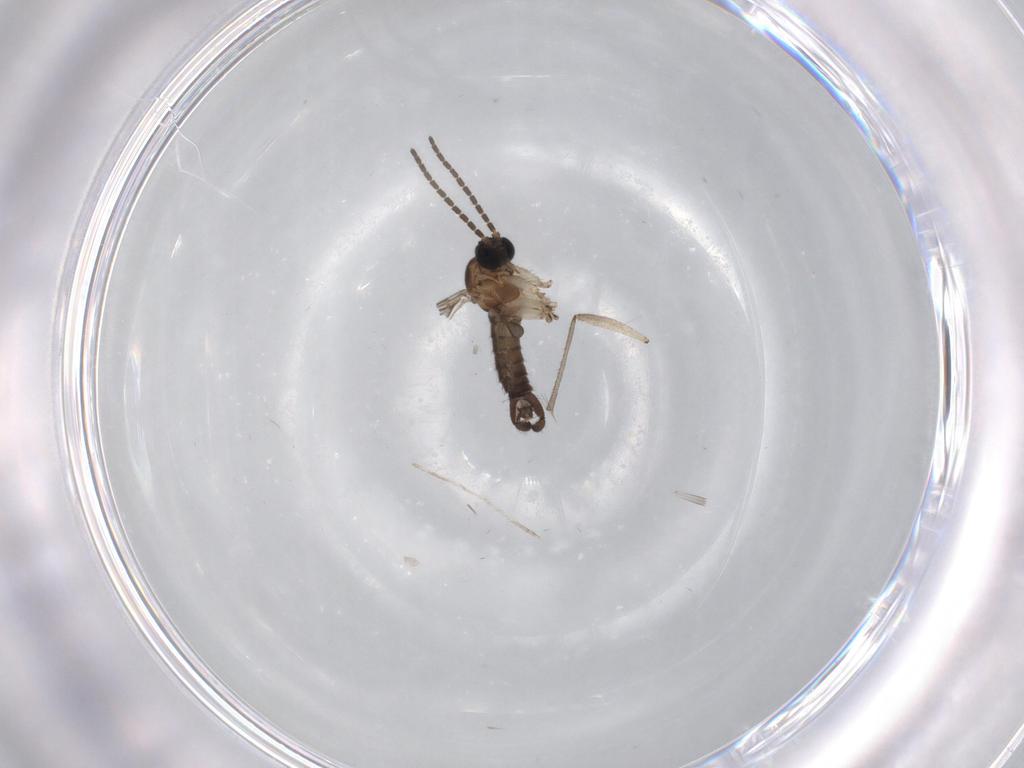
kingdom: Animalia
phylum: Arthropoda
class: Insecta
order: Diptera
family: Sciaridae
